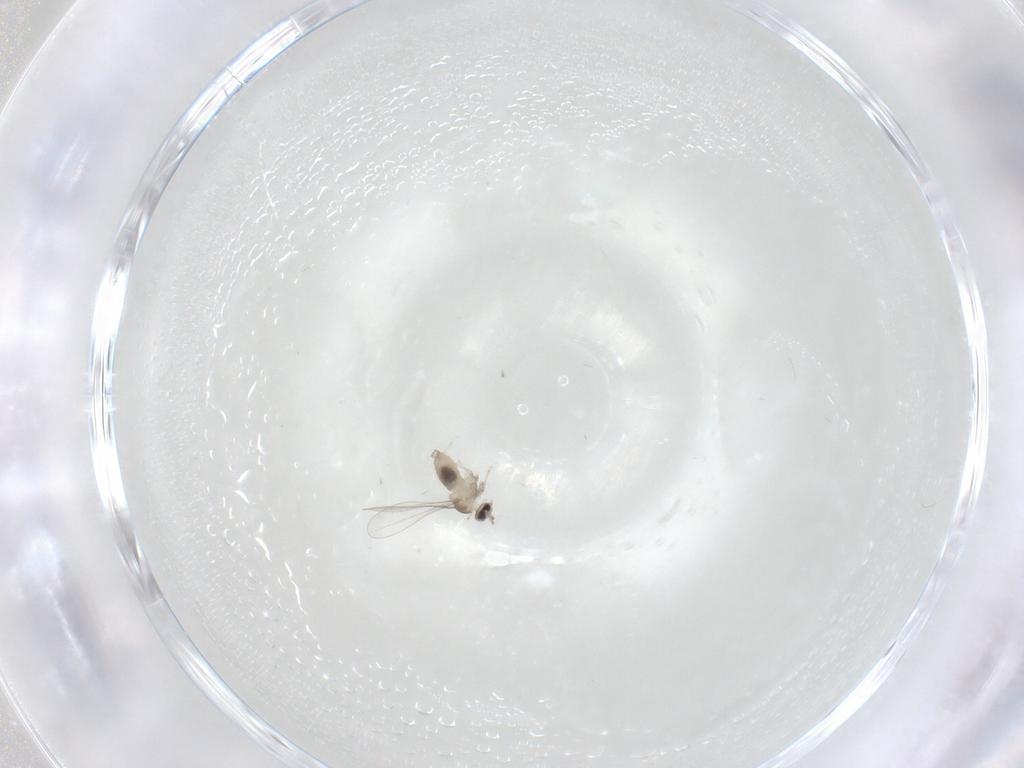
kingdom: Animalia
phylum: Arthropoda
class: Insecta
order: Diptera
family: Cecidomyiidae
